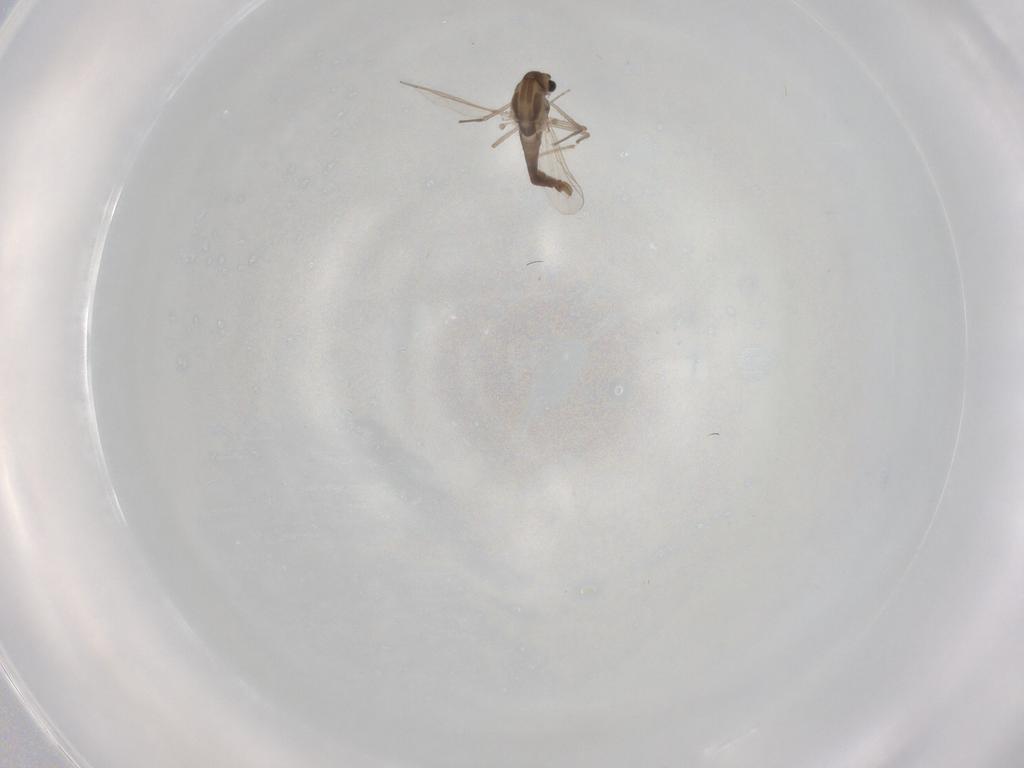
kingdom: Animalia
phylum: Arthropoda
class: Insecta
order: Diptera
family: Chironomidae
